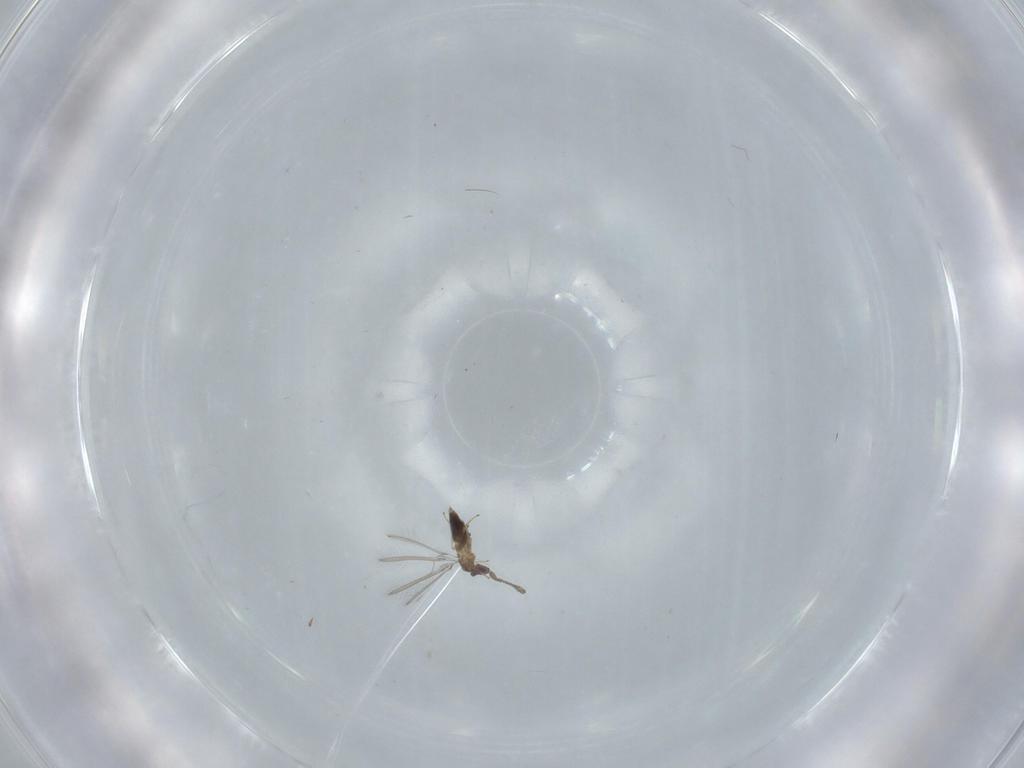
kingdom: Animalia
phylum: Arthropoda
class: Insecta
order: Hymenoptera
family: Mymaridae
